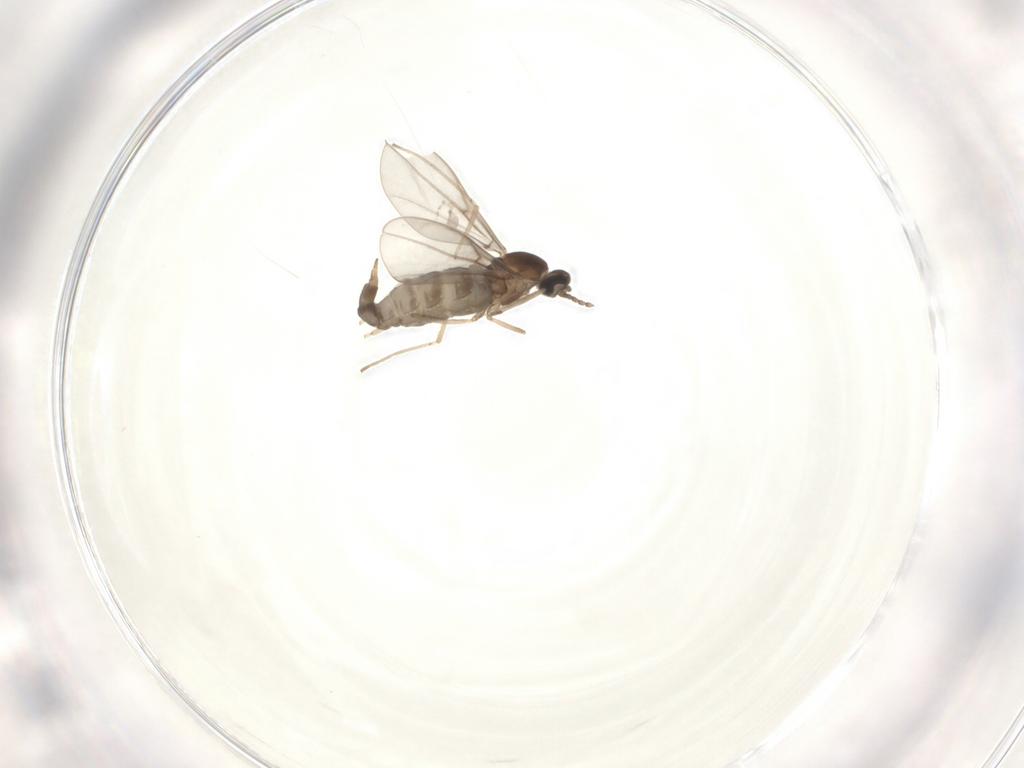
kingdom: Animalia
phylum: Arthropoda
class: Insecta
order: Diptera
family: Cecidomyiidae
